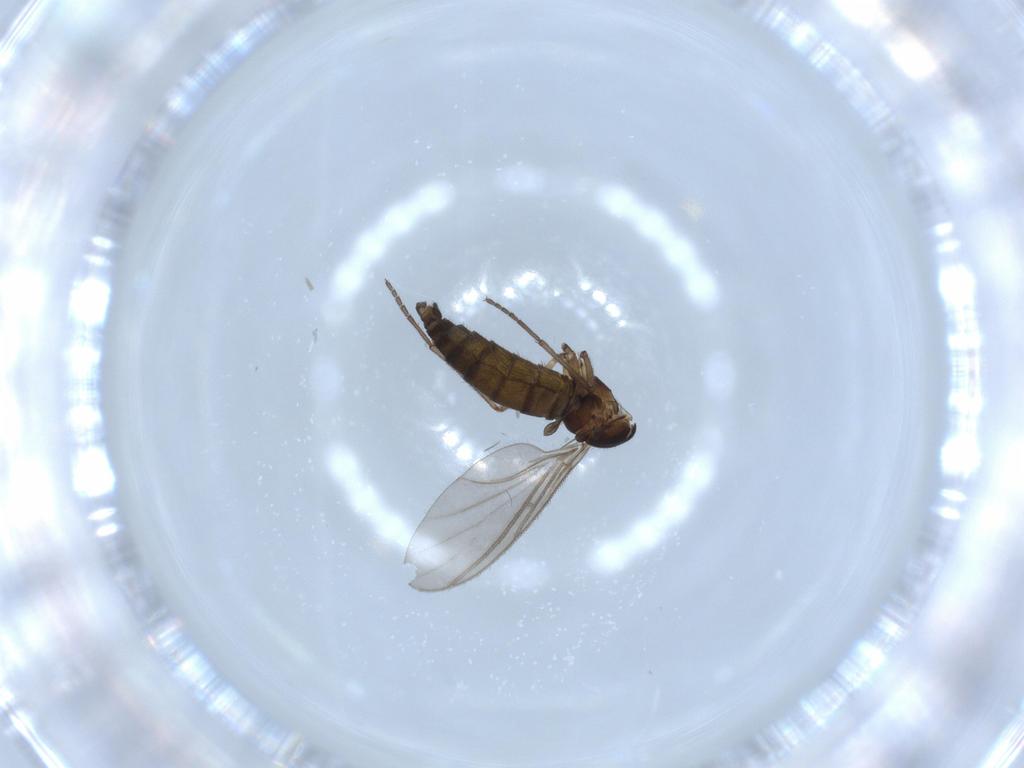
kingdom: Animalia
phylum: Arthropoda
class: Insecta
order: Diptera
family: Sciaridae
